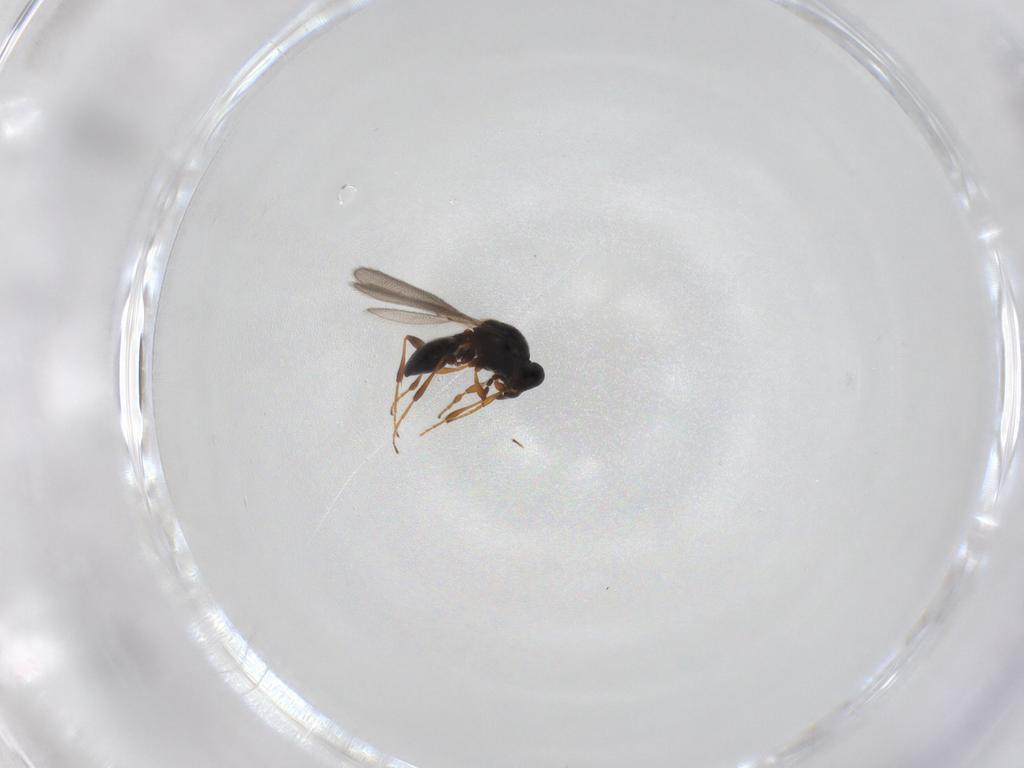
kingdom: Animalia
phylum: Arthropoda
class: Insecta
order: Hymenoptera
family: Platygastridae
